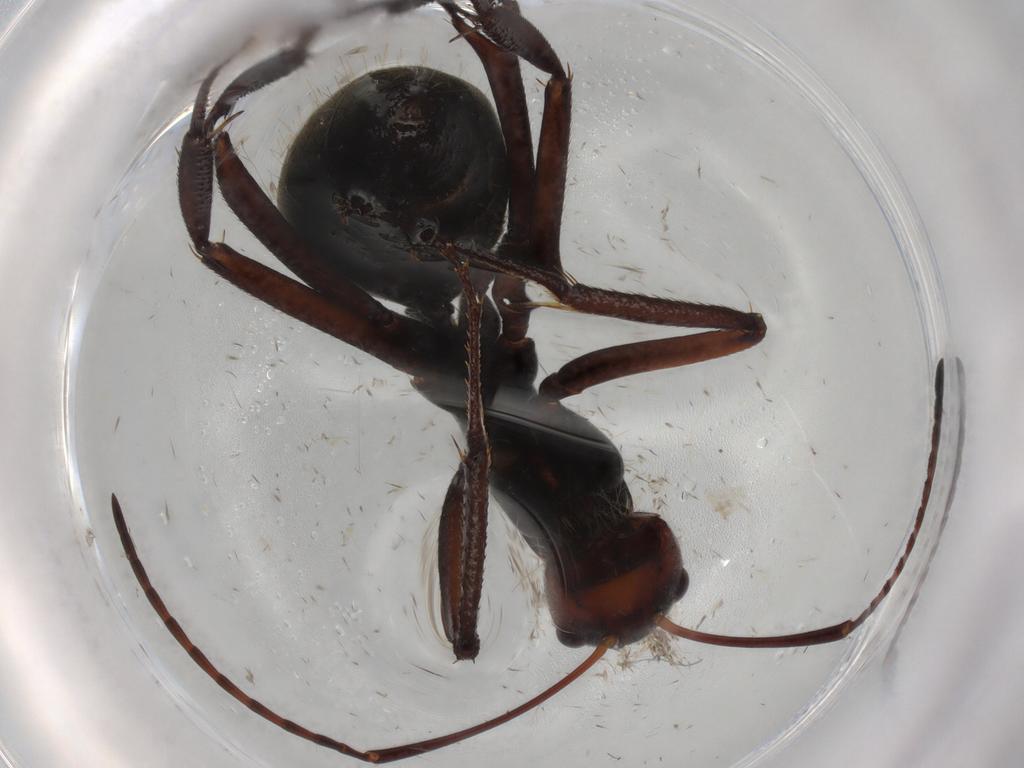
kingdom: Animalia
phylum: Arthropoda
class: Insecta
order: Hymenoptera
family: Formicidae
